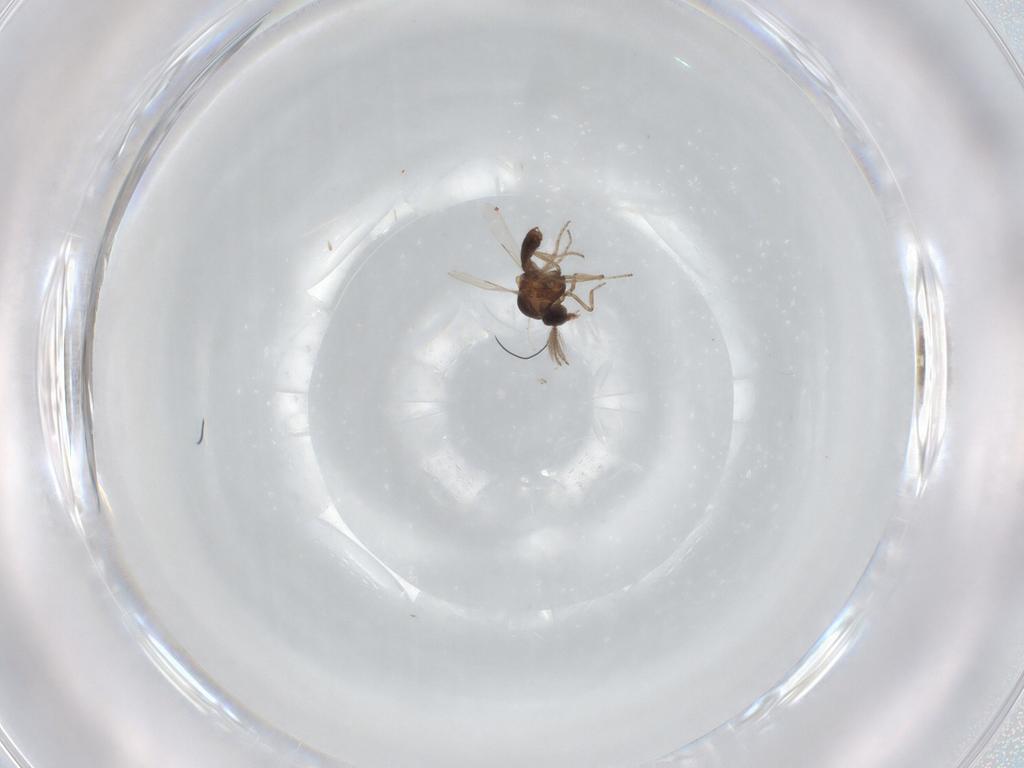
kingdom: Animalia
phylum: Arthropoda
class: Insecta
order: Diptera
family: Ceratopogonidae
